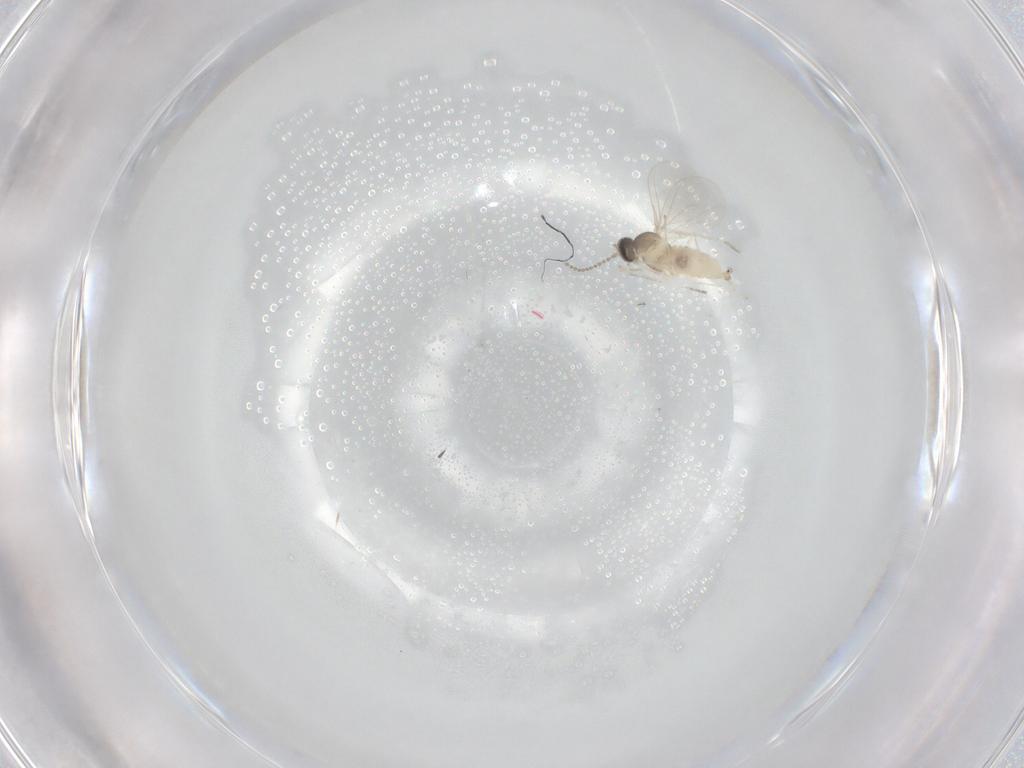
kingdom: Animalia
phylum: Arthropoda
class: Insecta
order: Diptera
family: Cecidomyiidae
